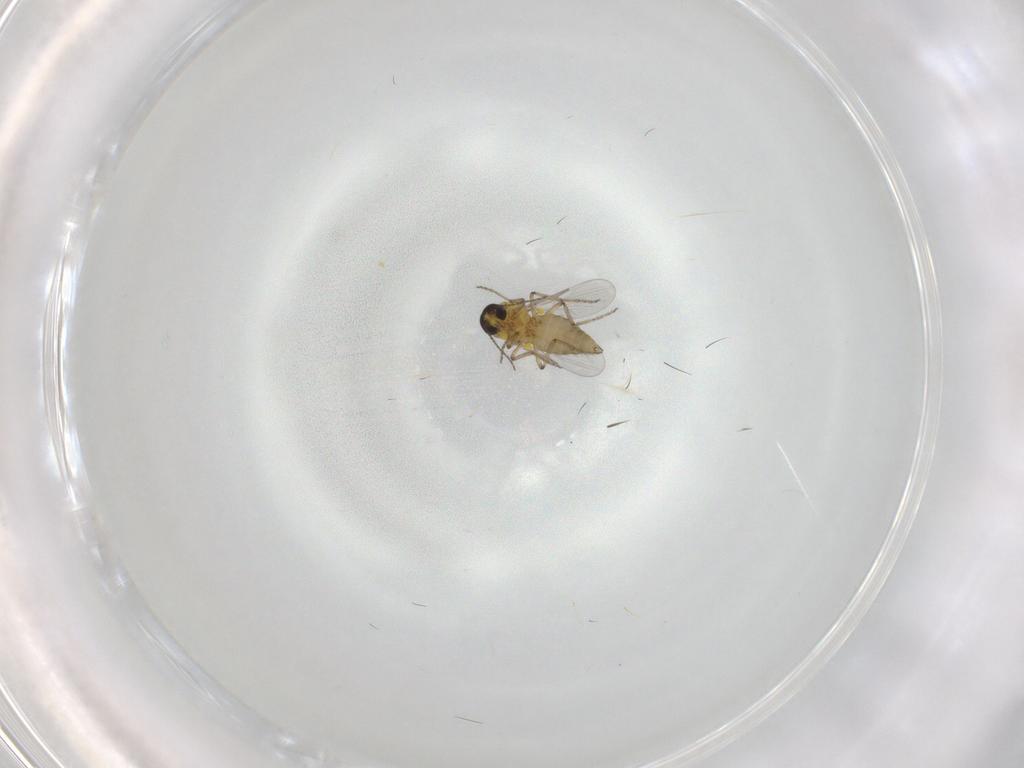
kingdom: Animalia
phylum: Arthropoda
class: Insecta
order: Diptera
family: Ceratopogonidae
